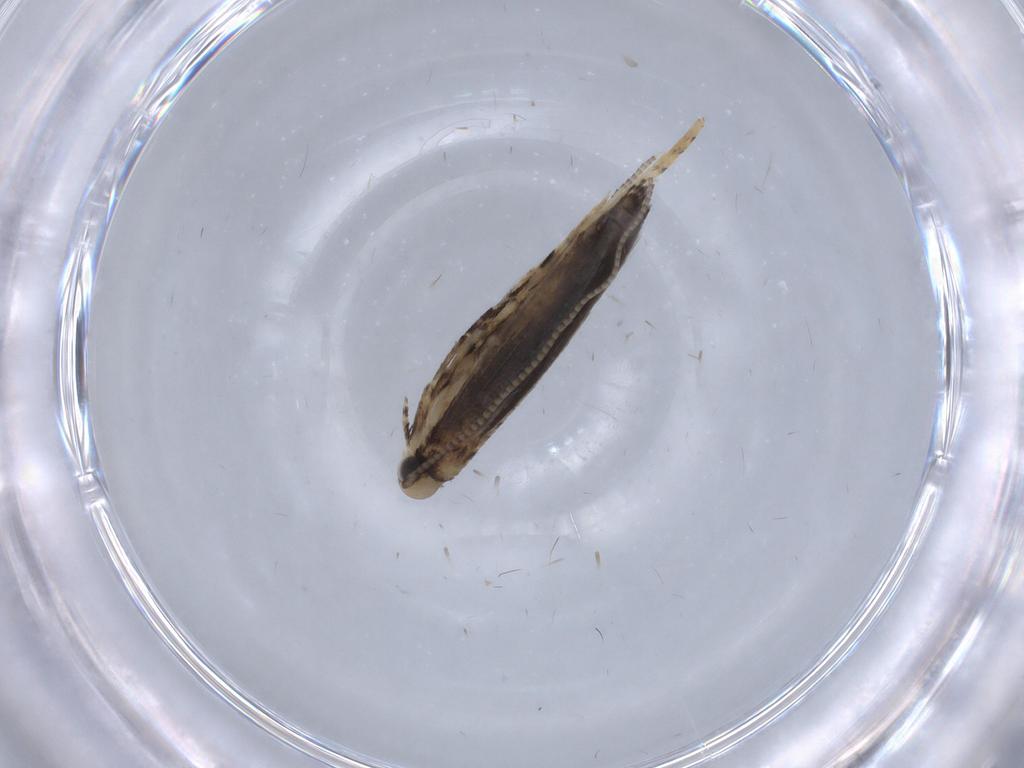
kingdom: Animalia
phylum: Arthropoda
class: Insecta
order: Lepidoptera
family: Gracillariidae
